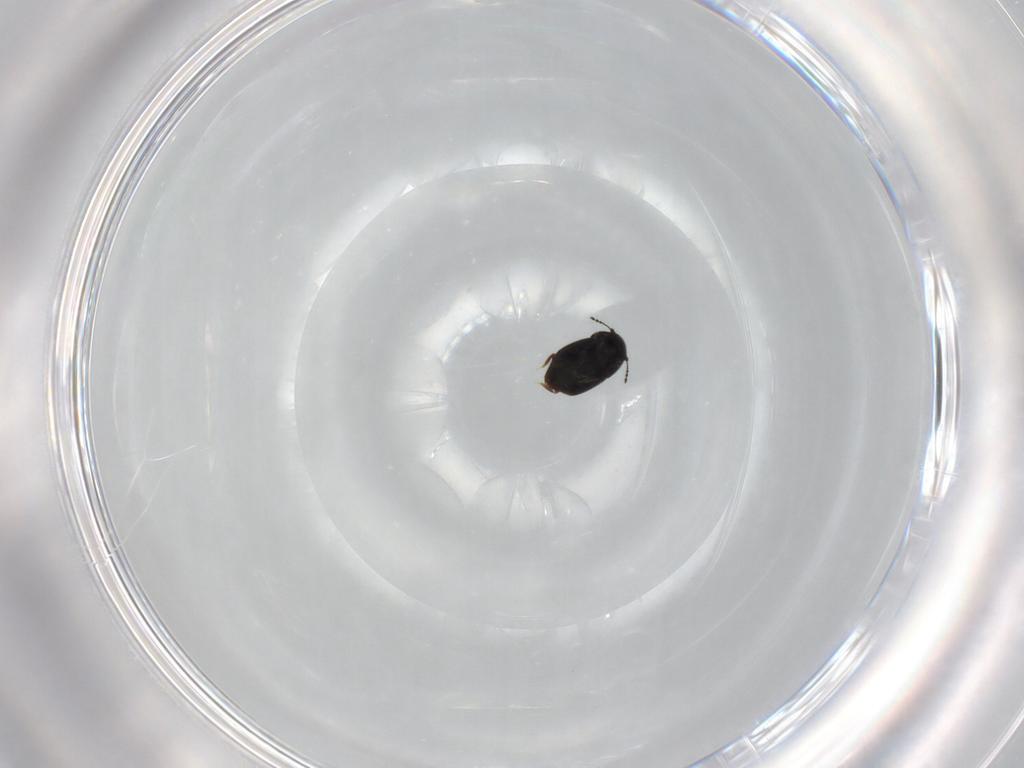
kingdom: Animalia
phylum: Arthropoda
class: Insecta
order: Coleoptera
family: Ptiliidae
